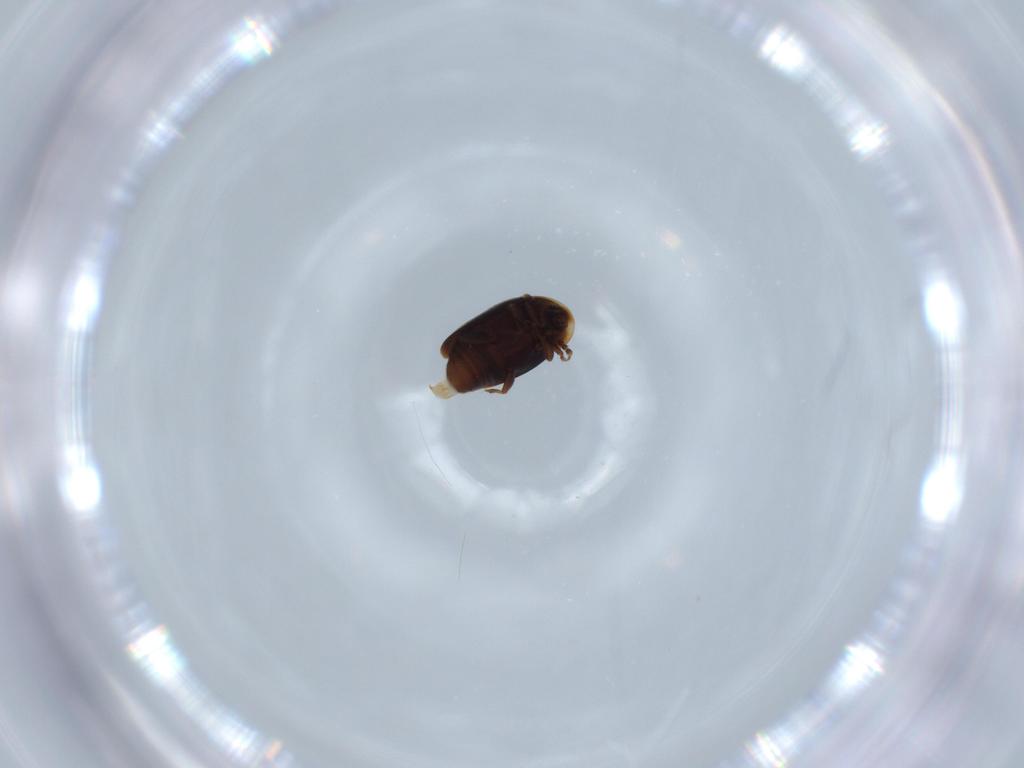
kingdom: Animalia
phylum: Arthropoda
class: Insecta
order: Coleoptera
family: Corylophidae
